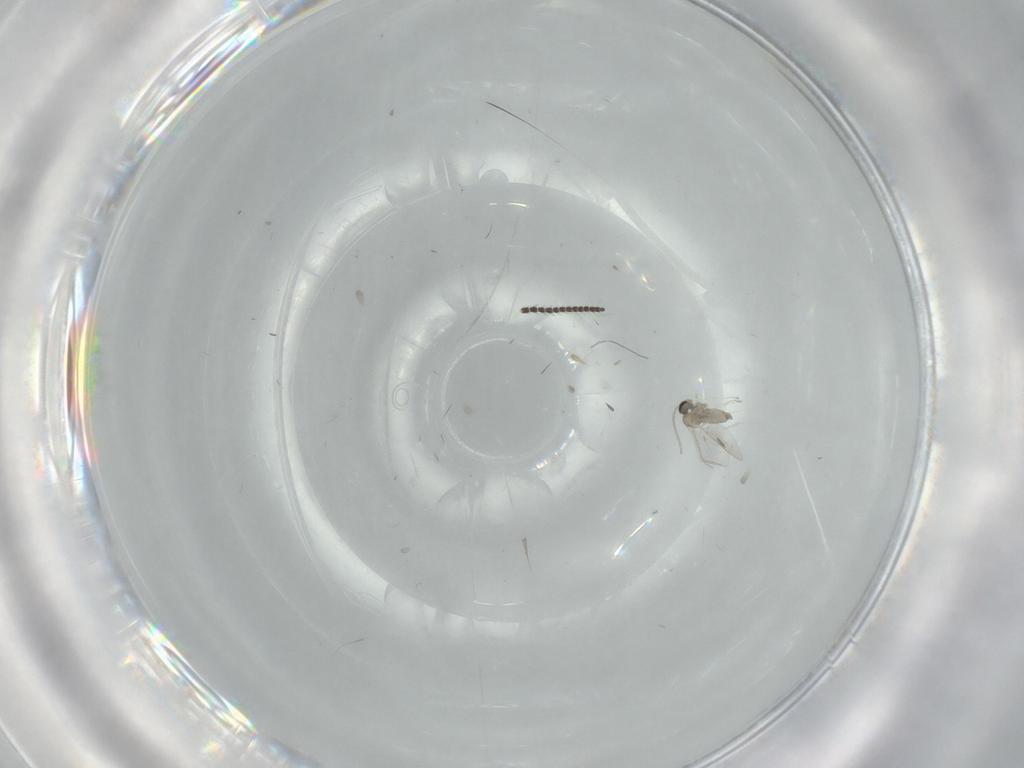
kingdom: Animalia
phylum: Arthropoda
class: Insecta
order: Diptera
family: Cecidomyiidae
